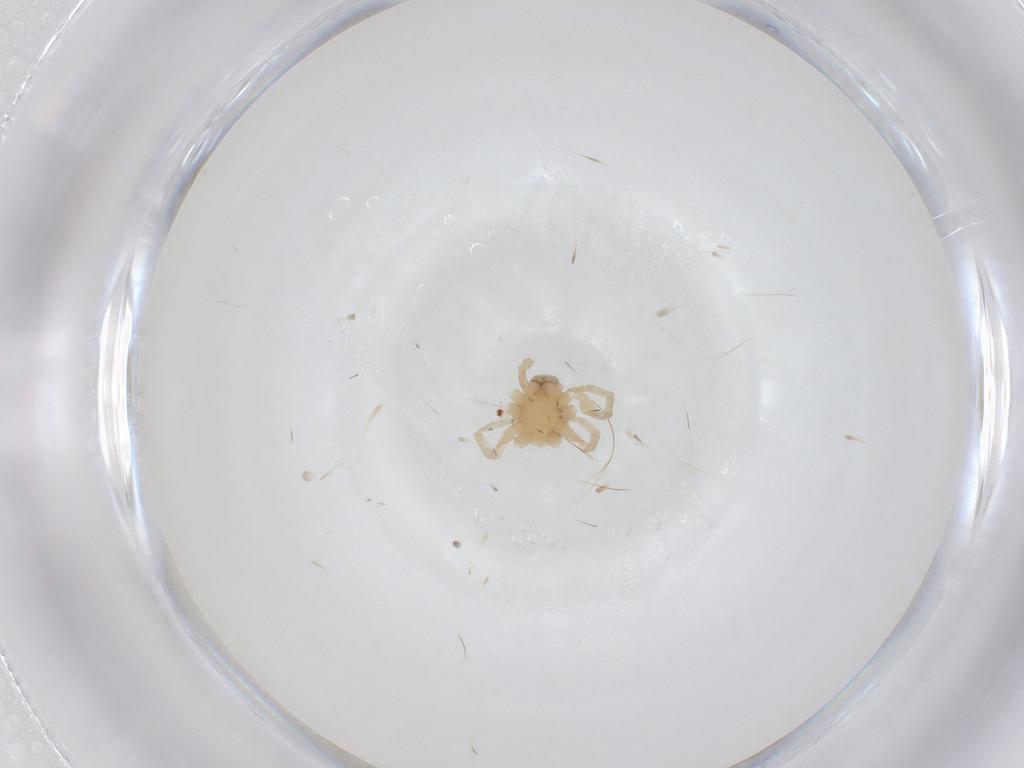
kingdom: Animalia
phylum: Arthropoda
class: Arachnida
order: Araneae
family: Corinnidae
